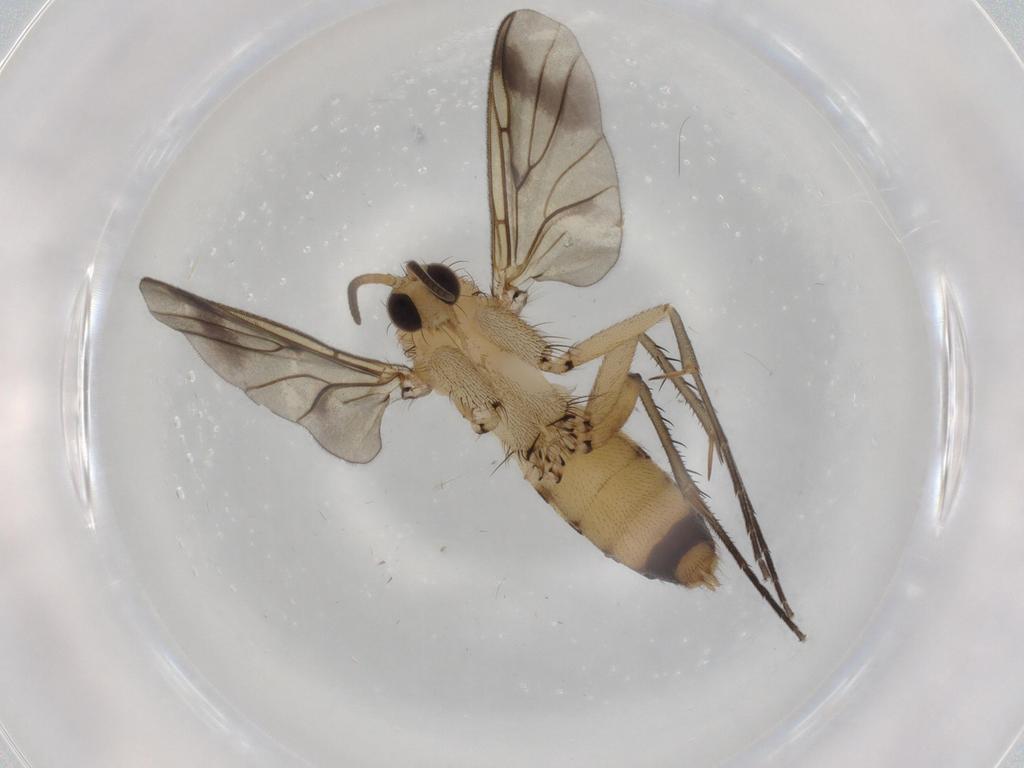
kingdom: Animalia
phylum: Arthropoda
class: Insecta
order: Diptera
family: Mycetophilidae
